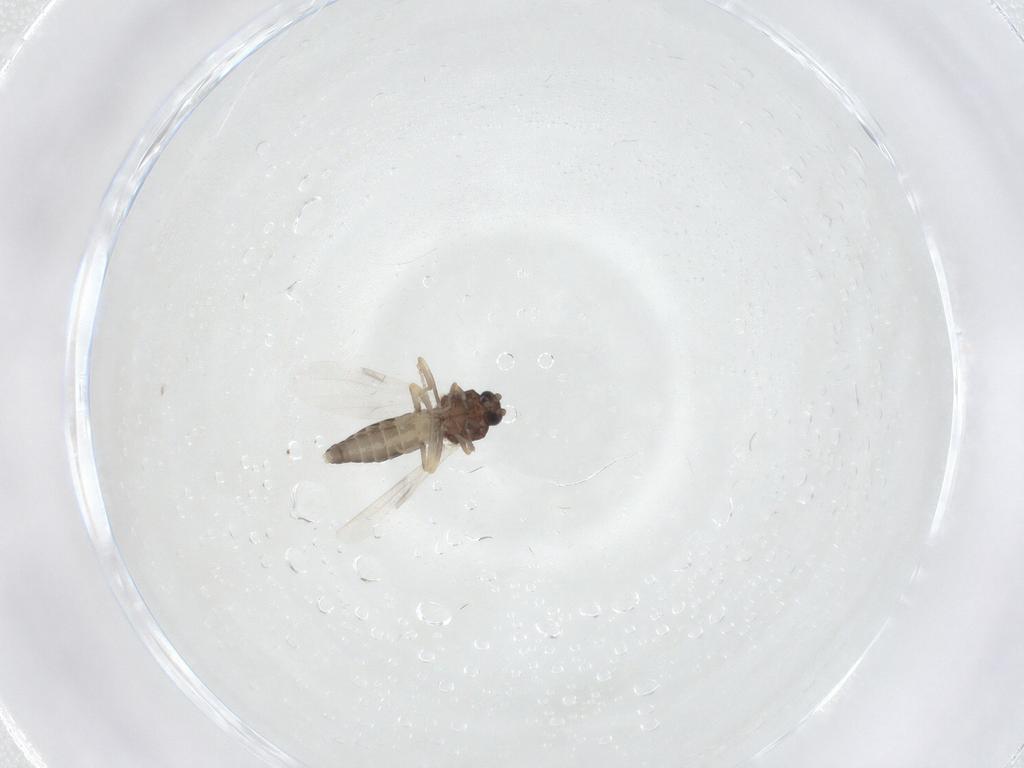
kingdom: Animalia
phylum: Arthropoda
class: Insecta
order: Diptera
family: Ceratopogonidae
